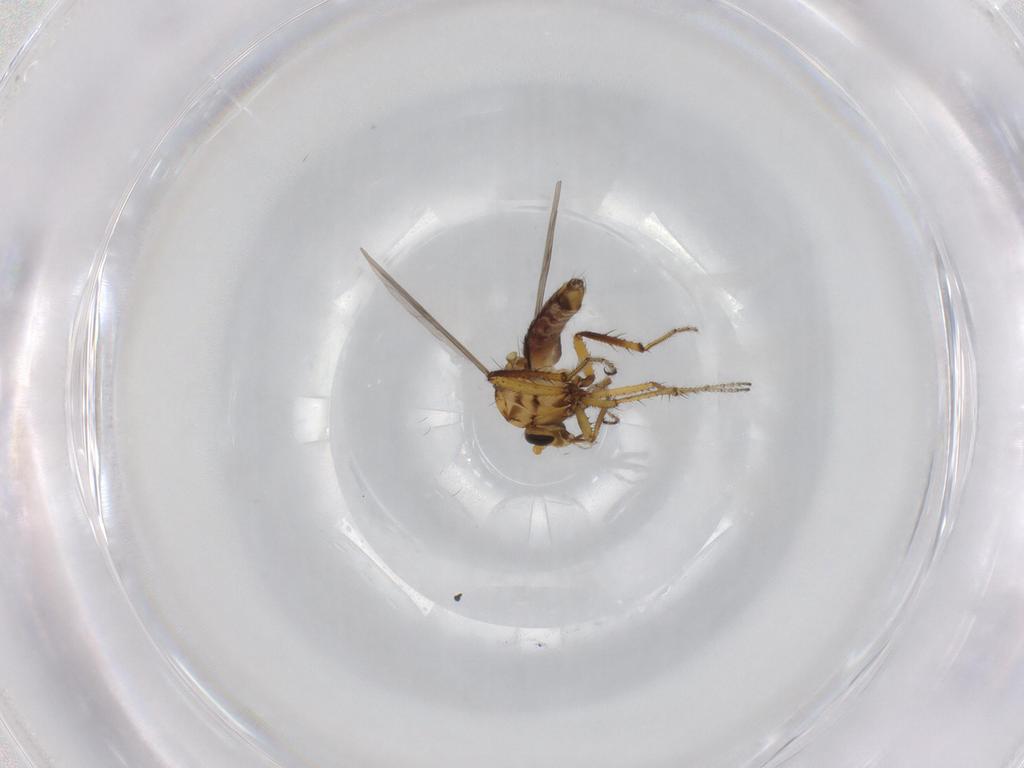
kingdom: Animalia
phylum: Arthropoda
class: Insecta
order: Diptera
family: Ceratopogonidae
